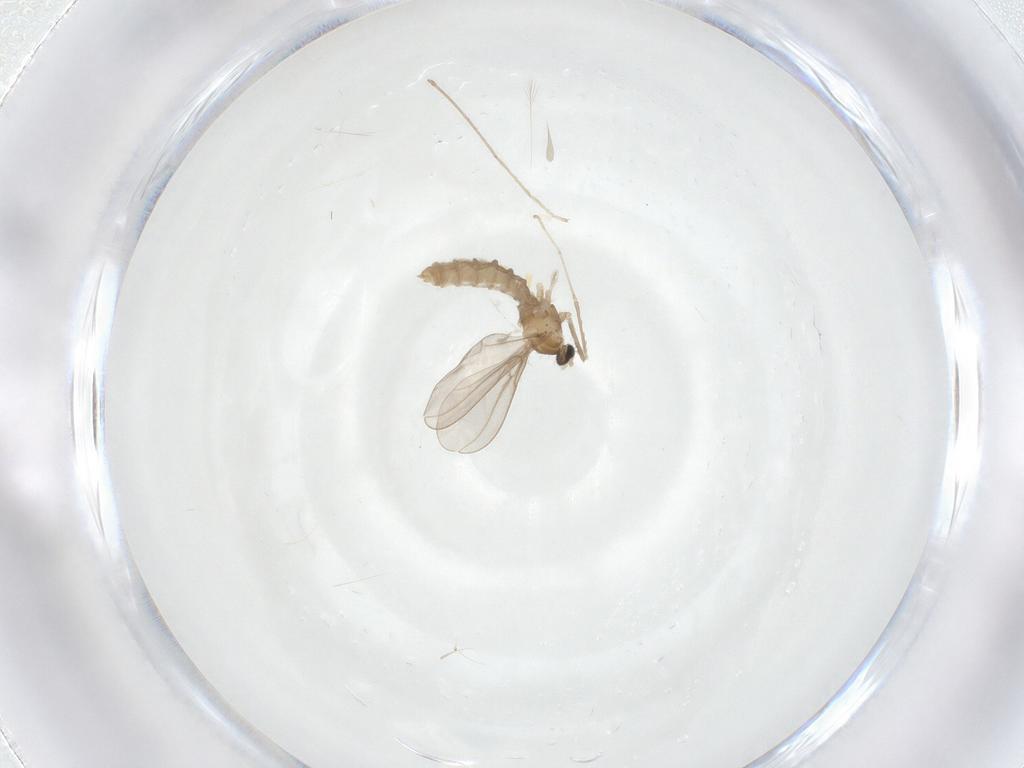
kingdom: Animalia
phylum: Arthropoda
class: Insecta
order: Diptera
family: Cecidomyiidae
